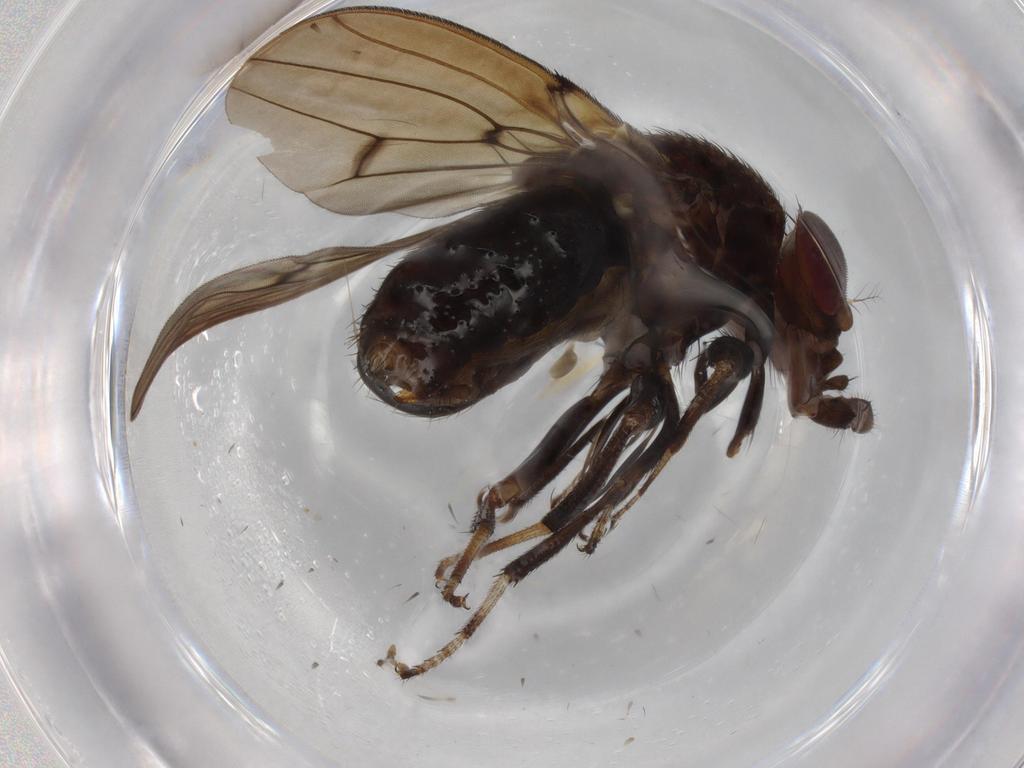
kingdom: Animalia
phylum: Arthropoda
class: Insecta
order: Diptera
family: Drosophilidae
